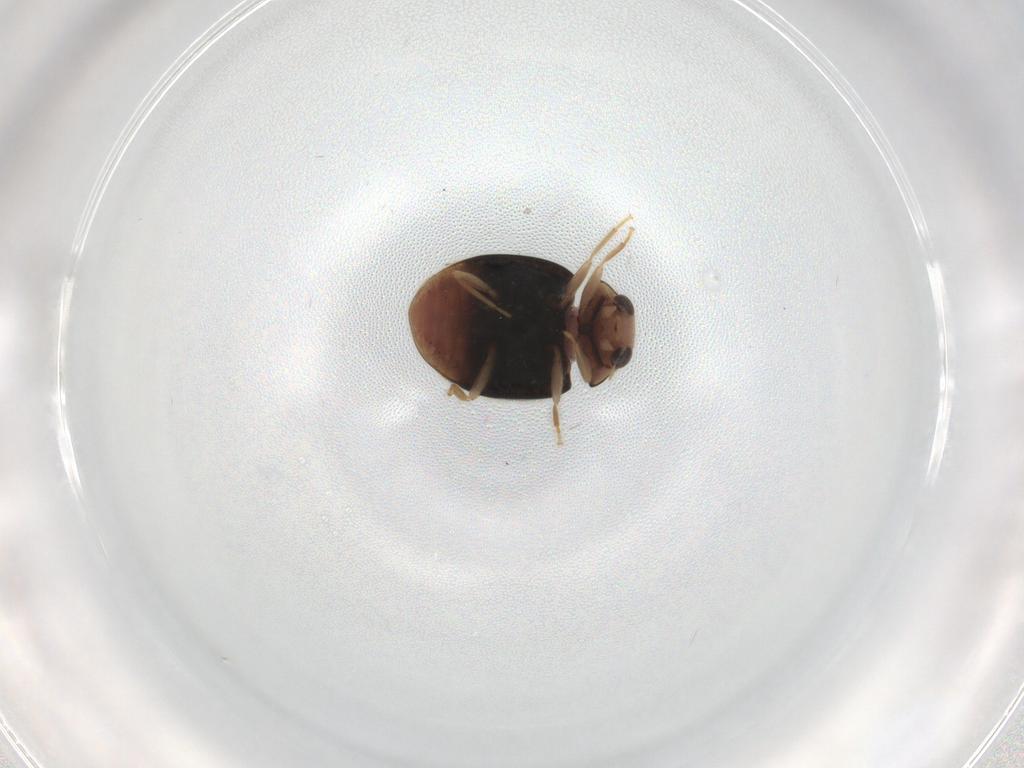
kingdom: Animalia
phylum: Arthropoda
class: Insecta
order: Coleoptera
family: Coccinellidae
